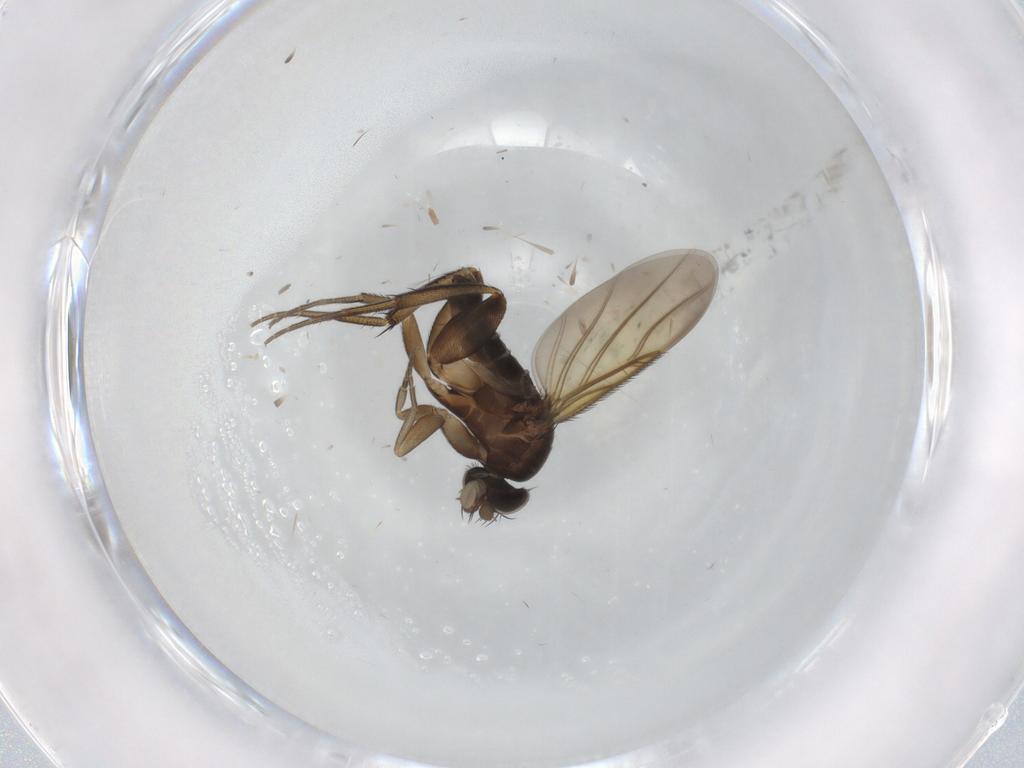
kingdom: Animalia
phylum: Arthropoda
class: Insecta
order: Diptera
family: Phoridae
